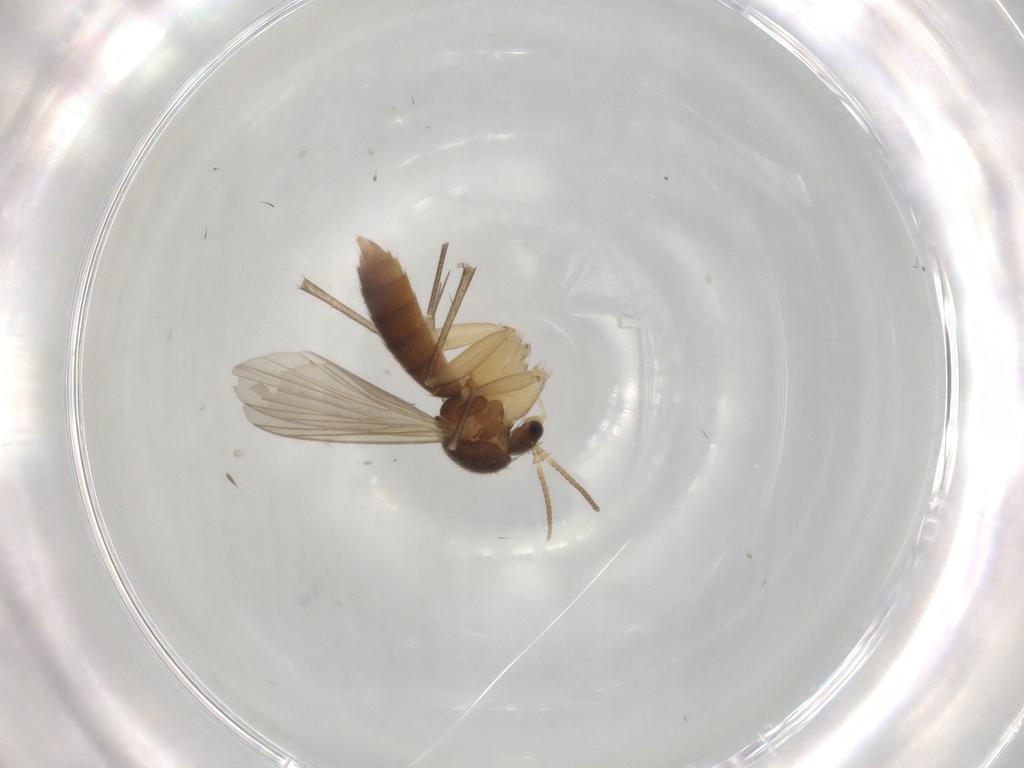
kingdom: Animalia
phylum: Arthropoda
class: Insecta
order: Diptera
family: Mycetophilidae
